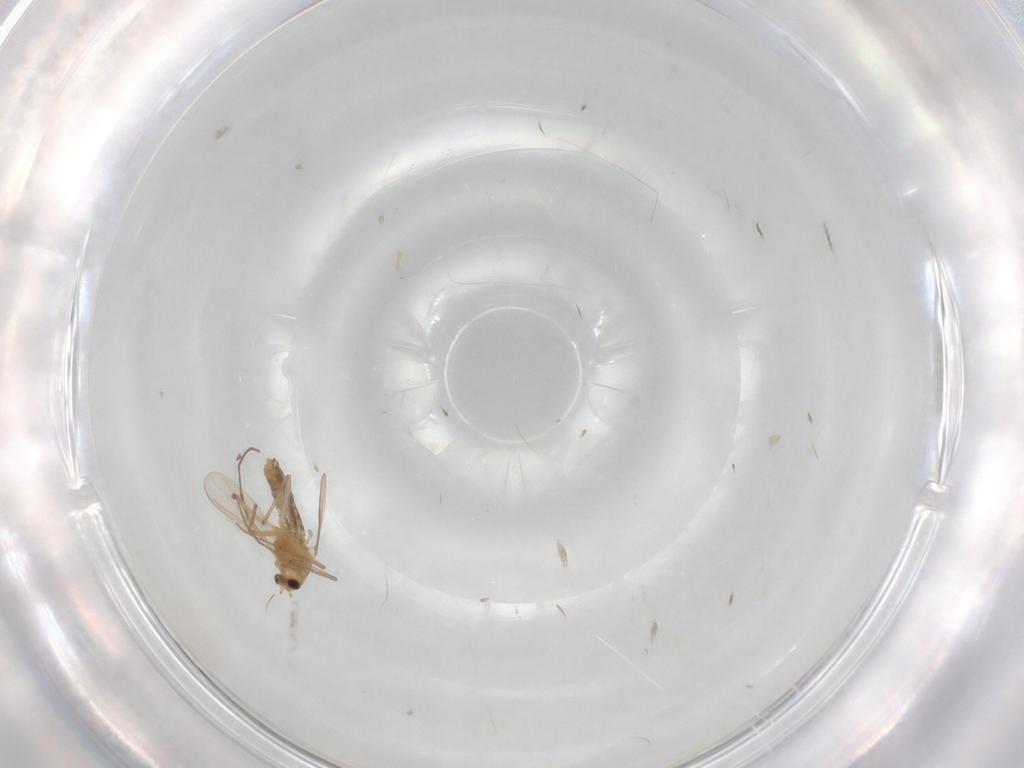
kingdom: Animalia
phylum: Arthropoda
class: Insecta
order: Diptera
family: Chironomidae
